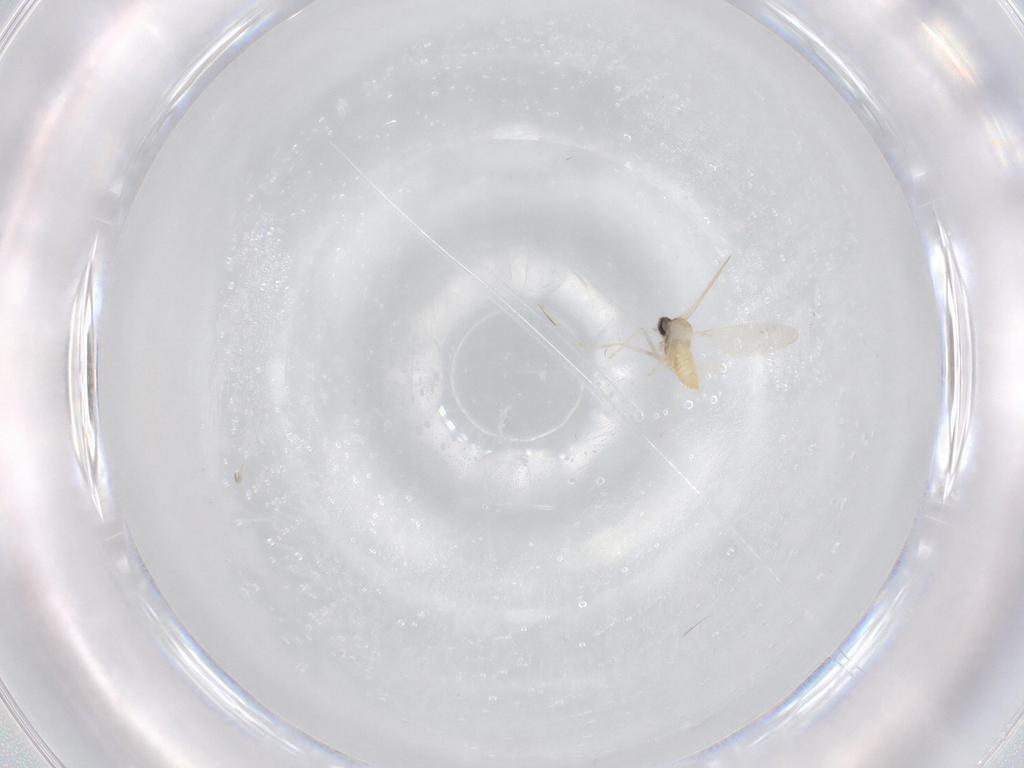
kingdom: Animalia
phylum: Arthropoda
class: Insecta
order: Diptera
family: Cecidomyiidae
